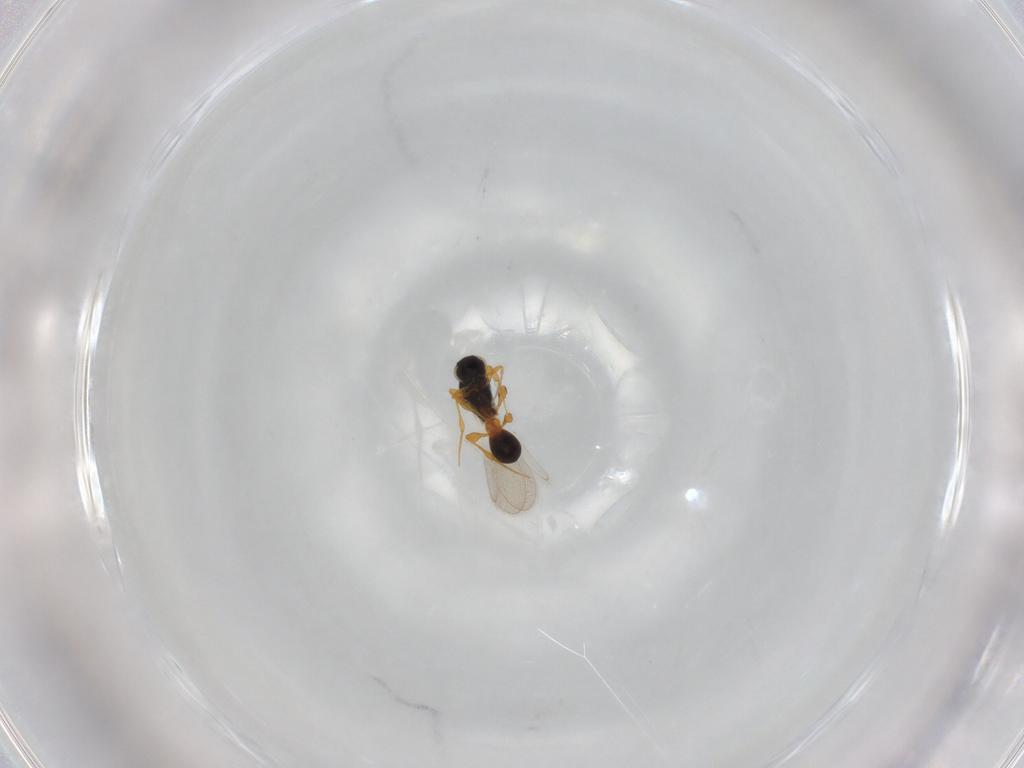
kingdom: Animalia
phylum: Arthropoda
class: Insecta
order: Hymenoptera
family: Platygastridae
